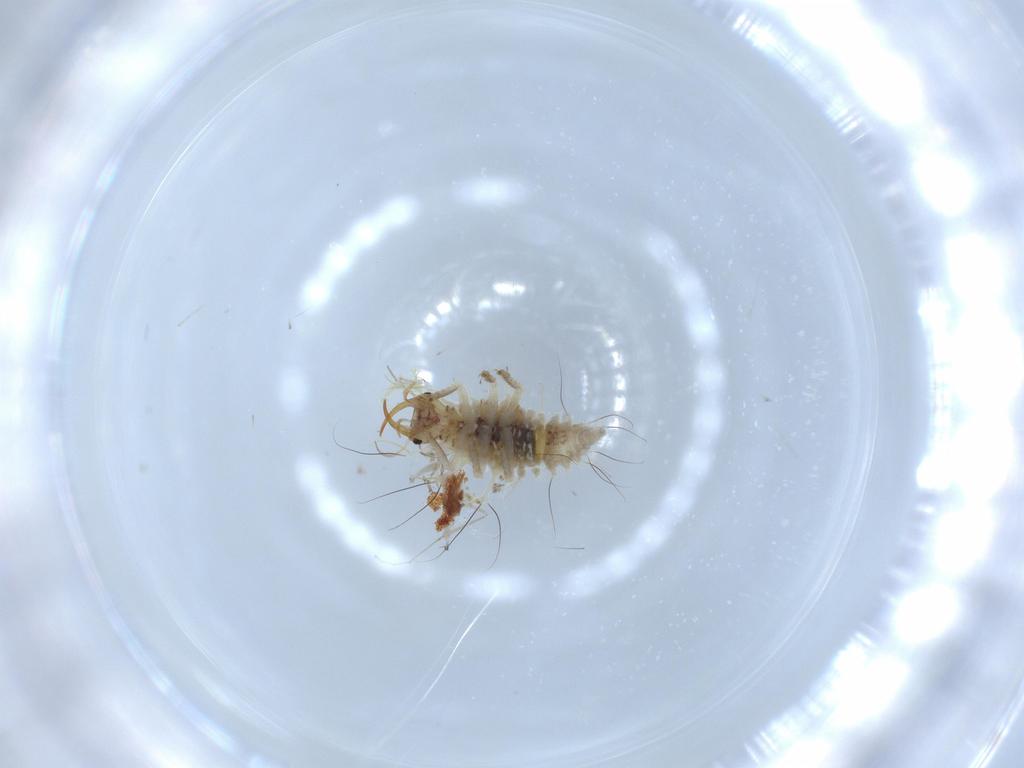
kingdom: Animalia
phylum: Arthropoda
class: Insecta
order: Neuroptera
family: Chrysopidae
